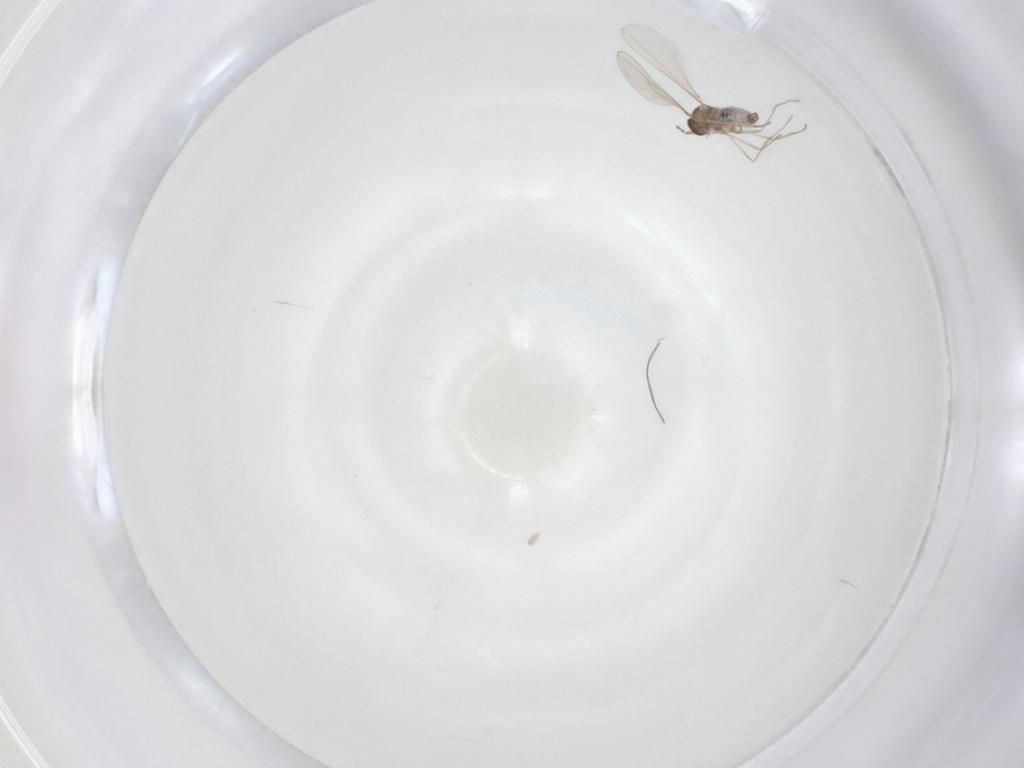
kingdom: Animalia
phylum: Arthropoda
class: Insecta
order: Diptera
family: Cecidomyiidae
